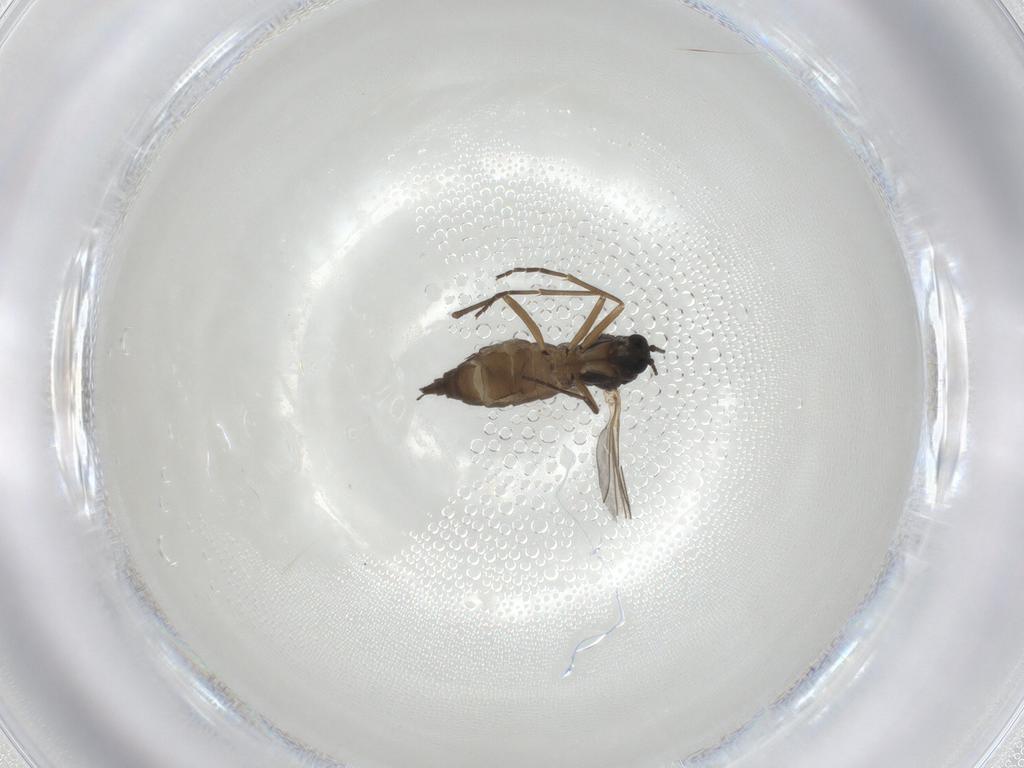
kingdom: Animalia
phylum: Arthropoda
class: Insecta
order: Diptera
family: Sciaridae
